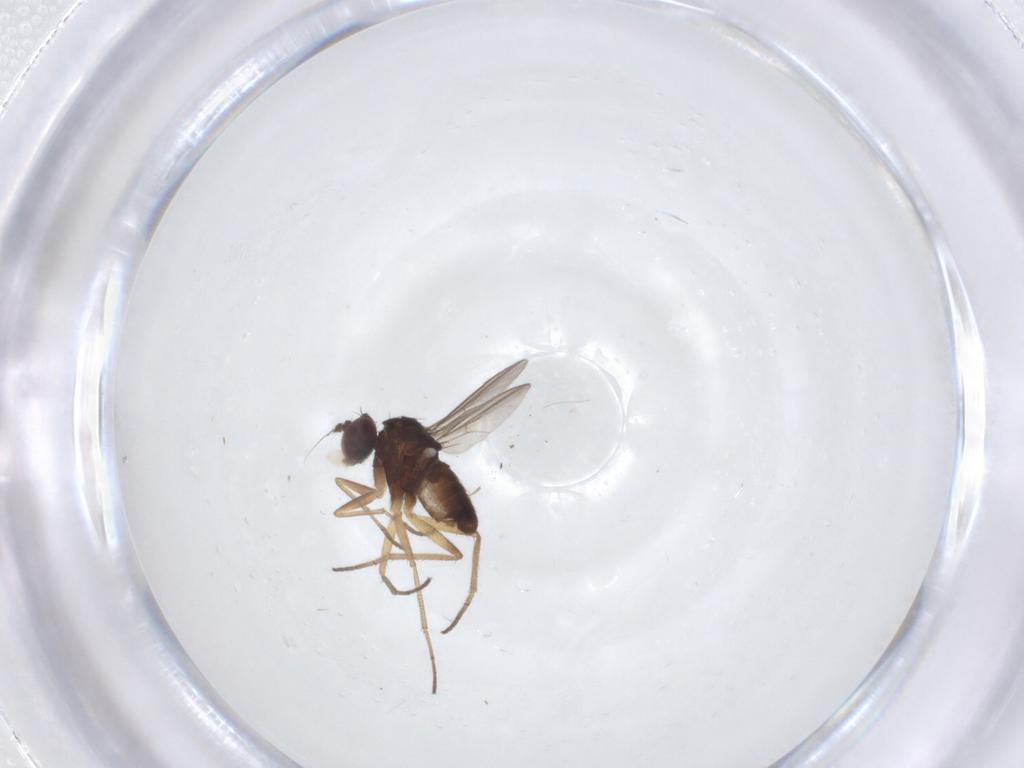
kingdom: Animalia
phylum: Arthropoda
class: Insecta
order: Diptera
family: Dolichopodidae
